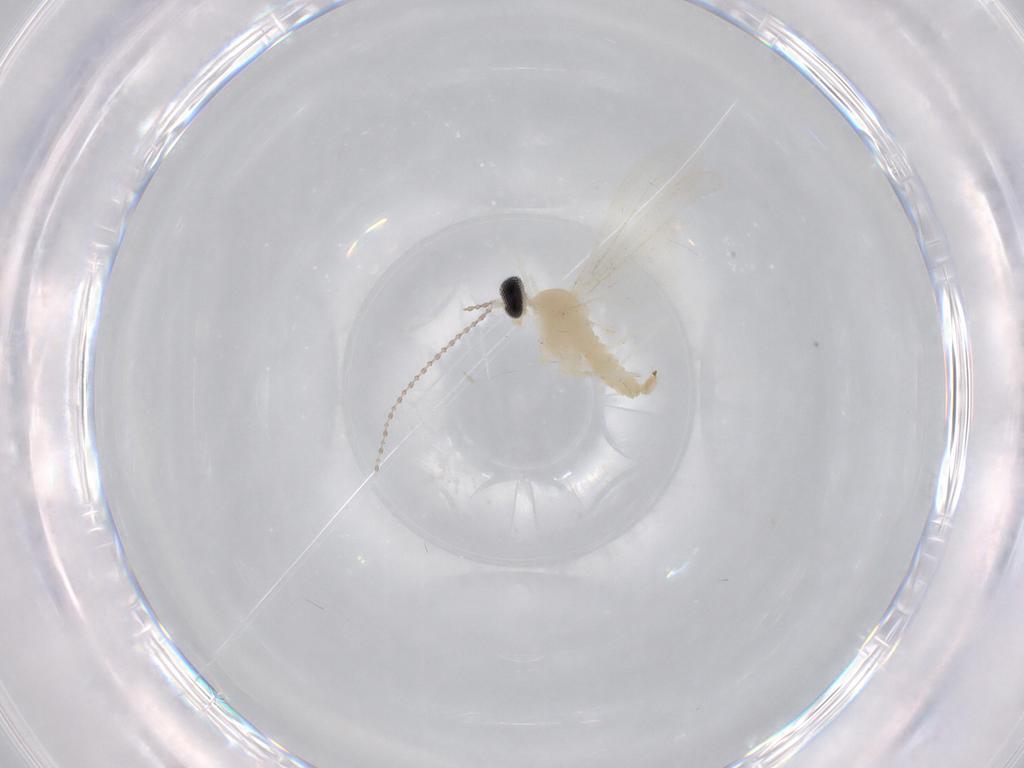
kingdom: Animalia
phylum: Arthropoda
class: Insecta
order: Diptera
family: Cecidomyiidae
